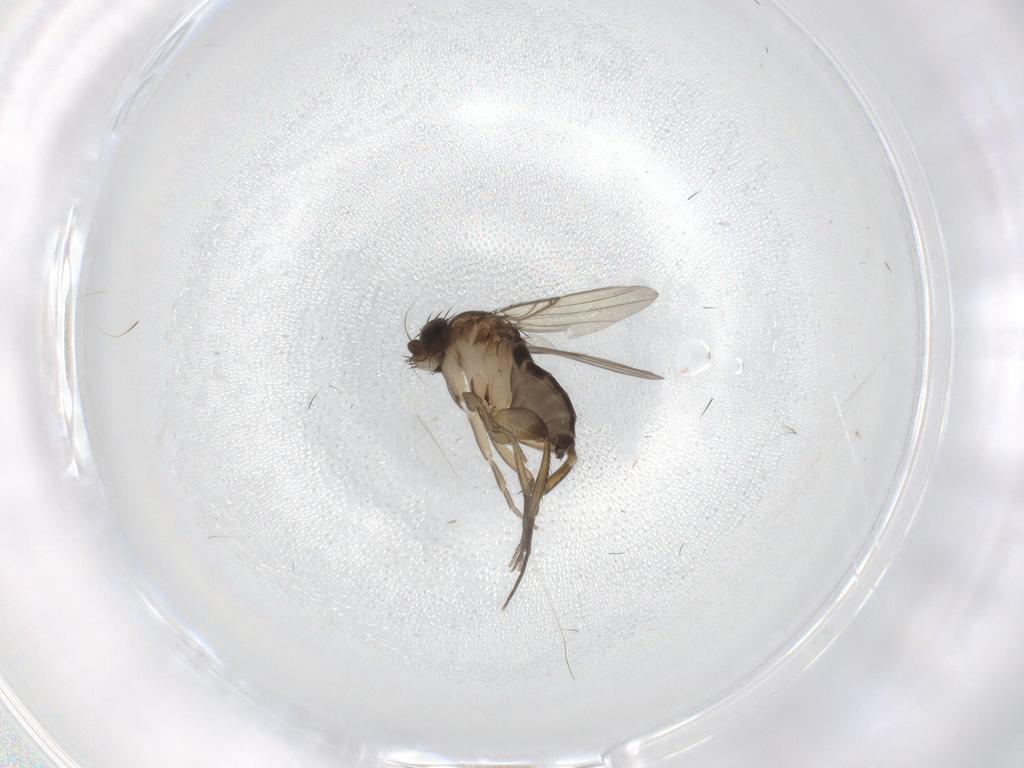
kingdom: Animalia
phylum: Arthropoda
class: Insecta
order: Diptera
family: Phoridae
